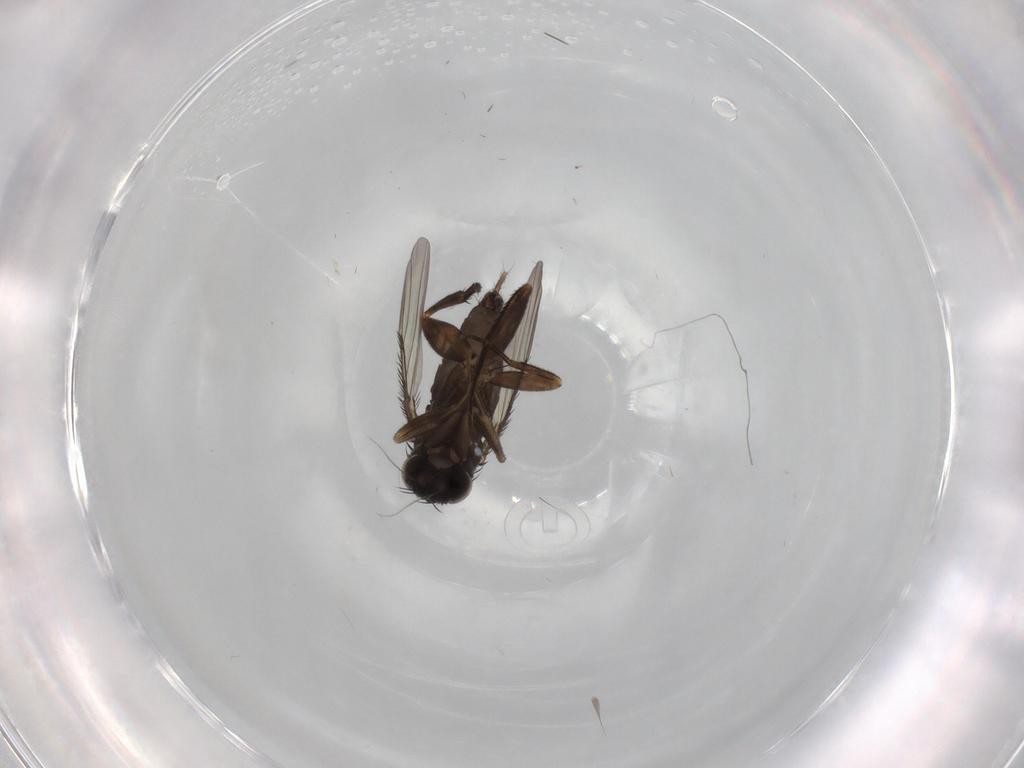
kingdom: Animalia
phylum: Arthropoda
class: Insecta
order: Diptera
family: Phoridae
